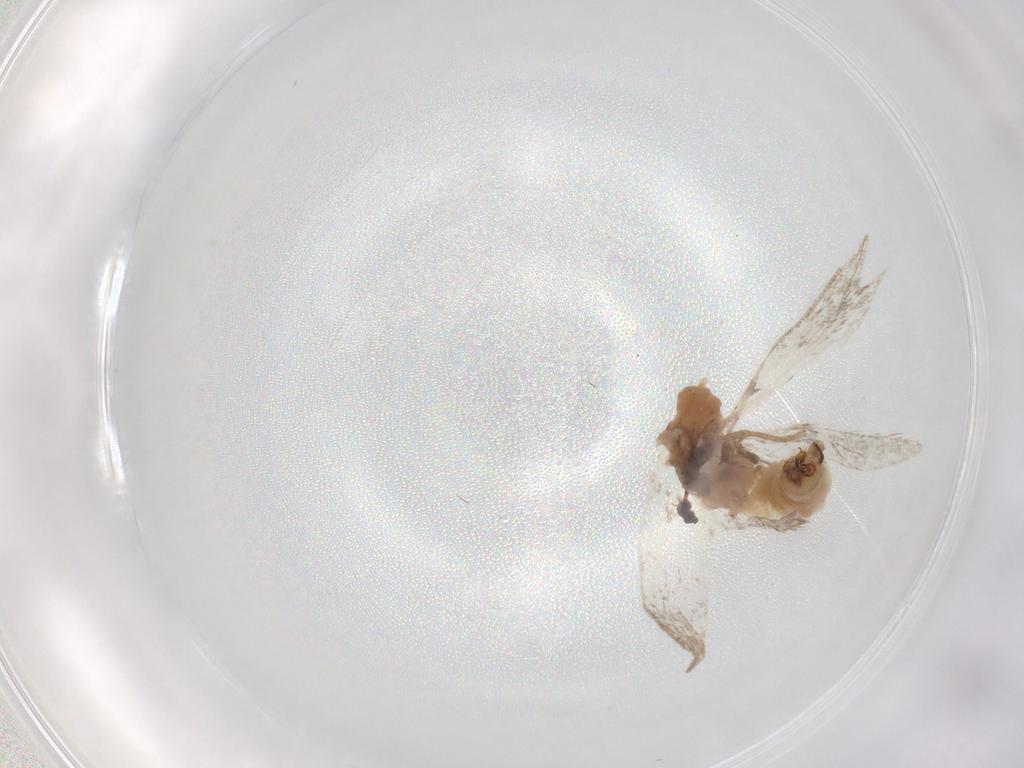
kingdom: Animalia
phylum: Arthropoda
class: Insecta
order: Lepidoptera
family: Tineidae
